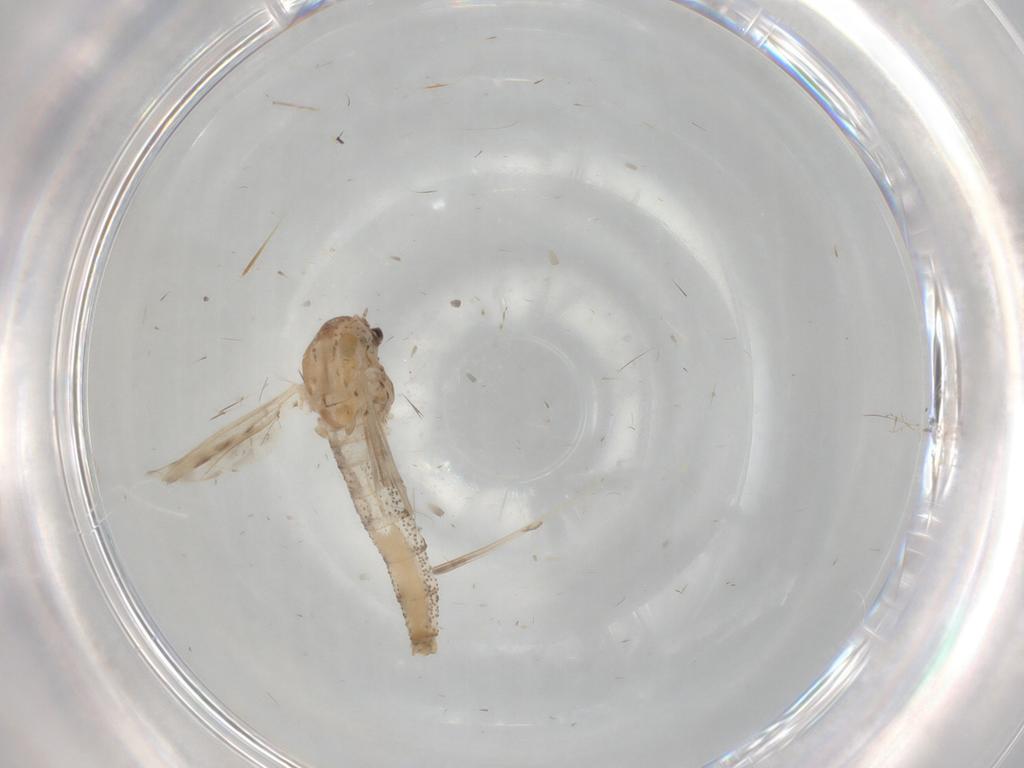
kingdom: Animalia
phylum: Arthropoda
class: Insecta
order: Diptera
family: Chaoboridae
